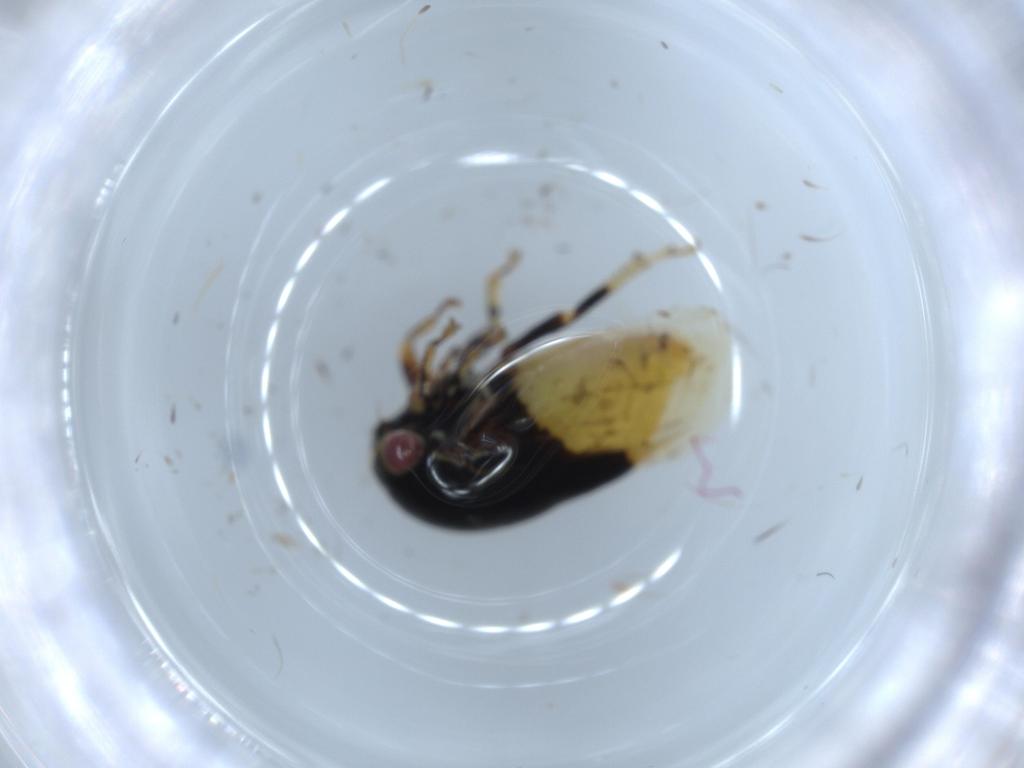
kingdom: Animalia
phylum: Arthropoda
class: Insecta
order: Hemiptera
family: Membracidae
